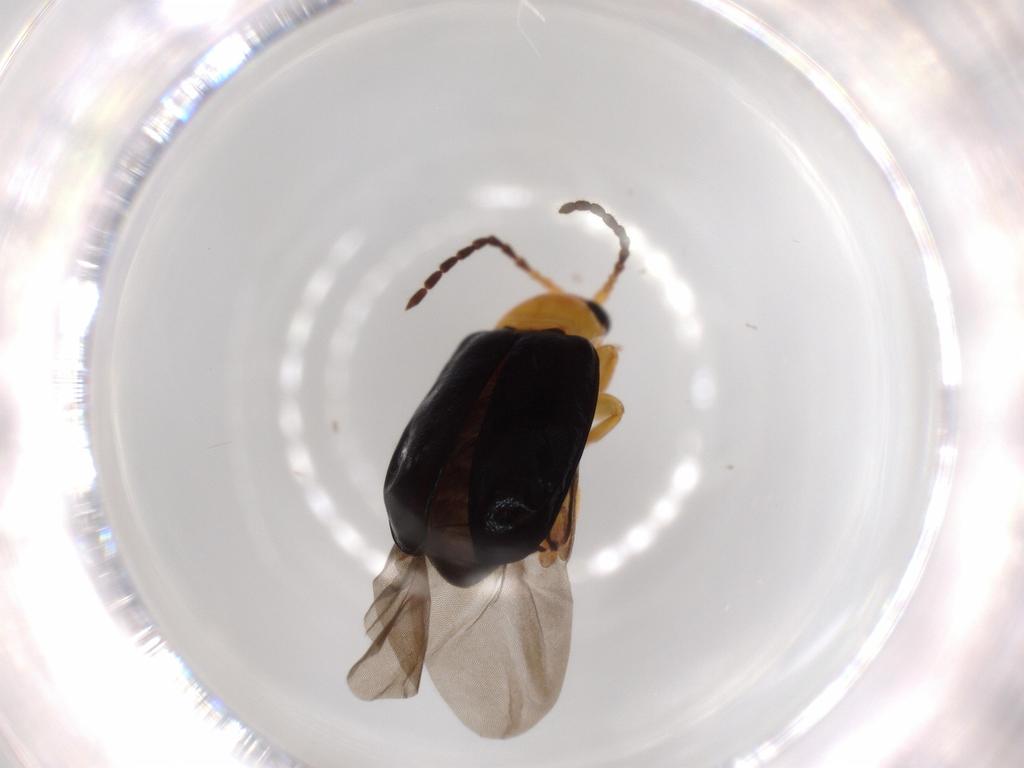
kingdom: Animalia
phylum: Arthropoda
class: Insecta
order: Coleoptera
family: Chrysomelidae
